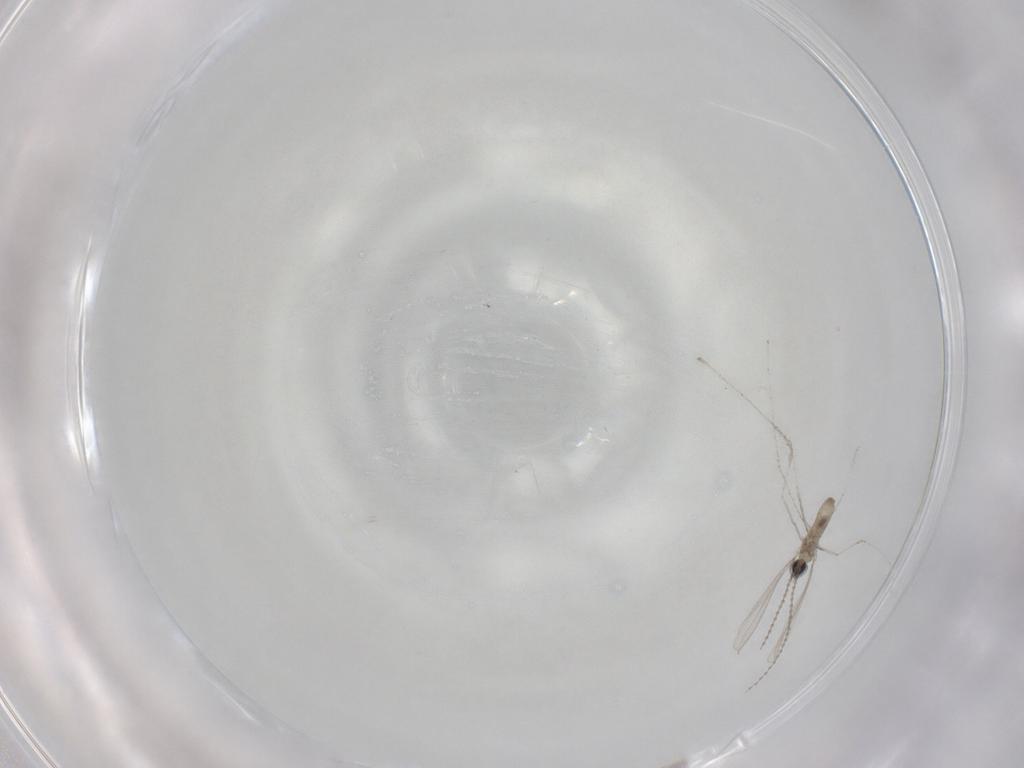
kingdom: Animalia
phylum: Arthropoda
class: Insecta
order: Diptera
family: Cecidomyiidae
